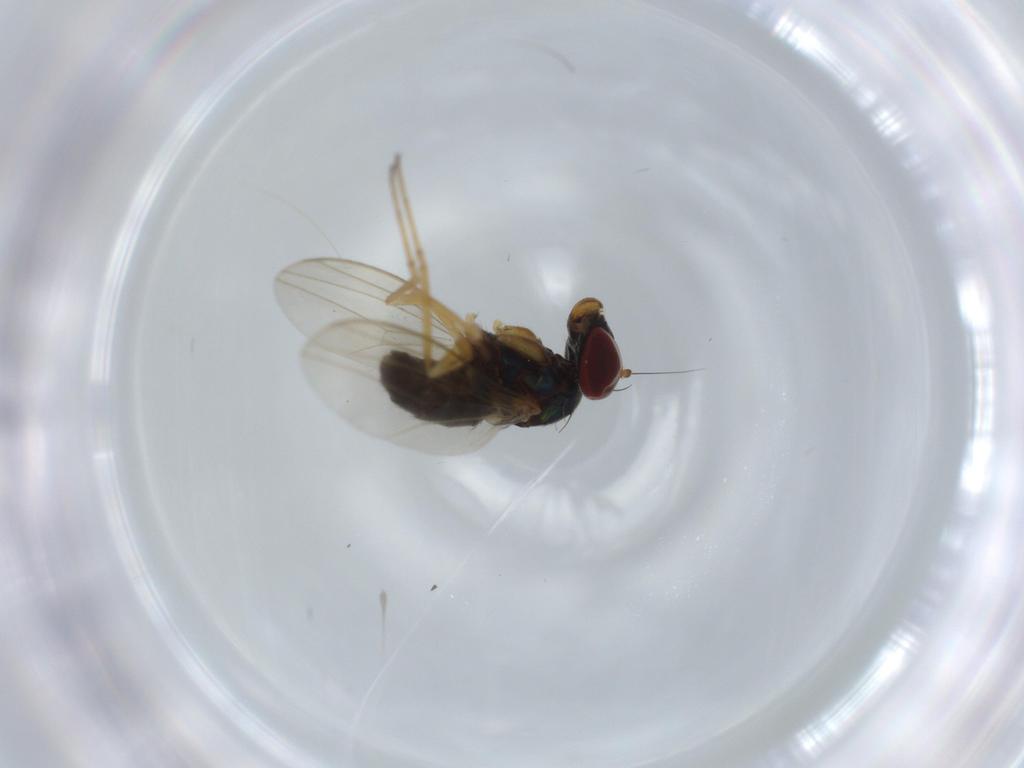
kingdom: Animalia
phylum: Arthropoda
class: Insecta
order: Diptera
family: Dolichopodidae
